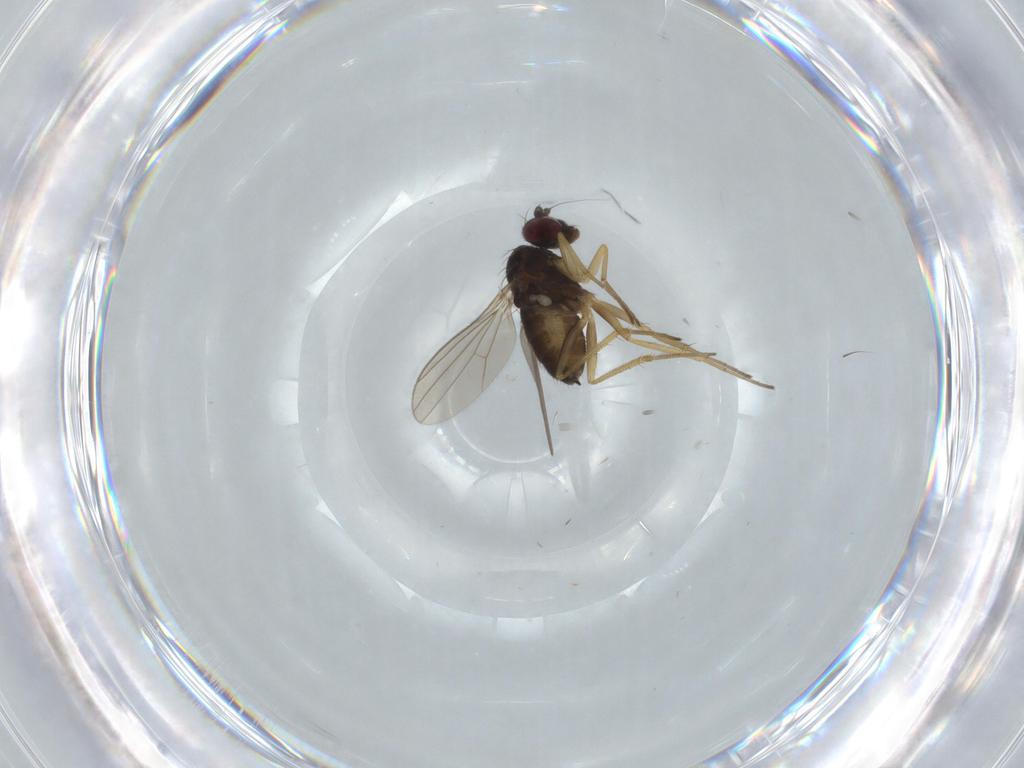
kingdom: Animalia
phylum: Arthropoda
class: Insecta
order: Diptera
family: Dolichopodidae
